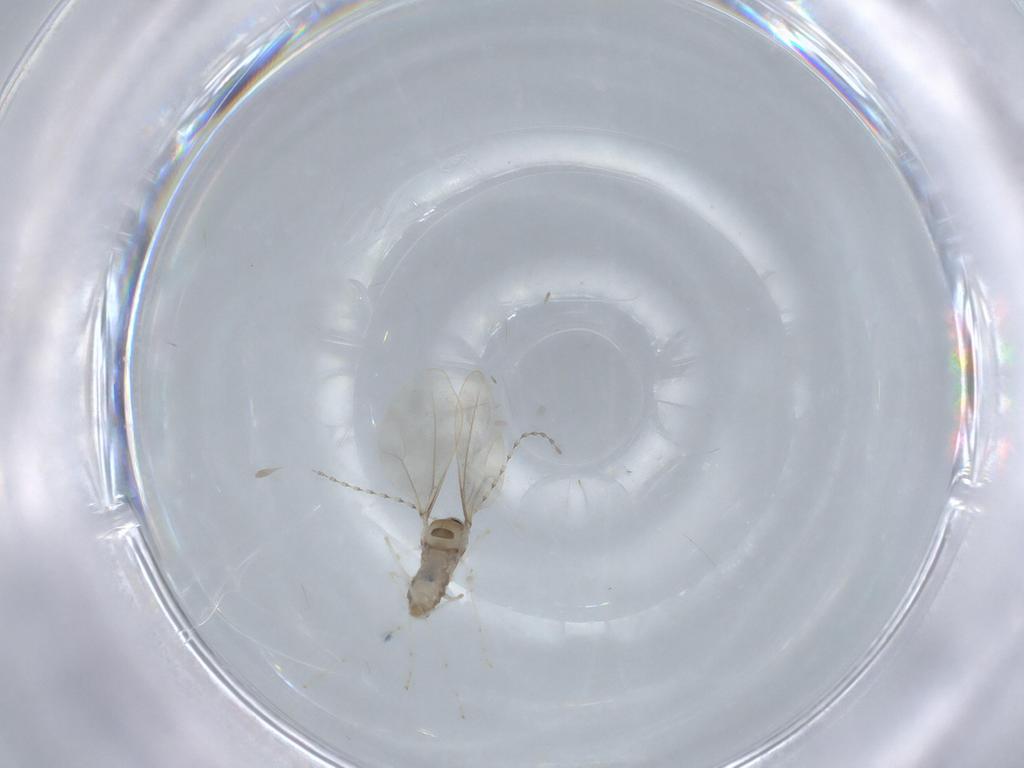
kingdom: Animalia
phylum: Arthropoda
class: Insecta
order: Diptera
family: Cecidomyiidae
